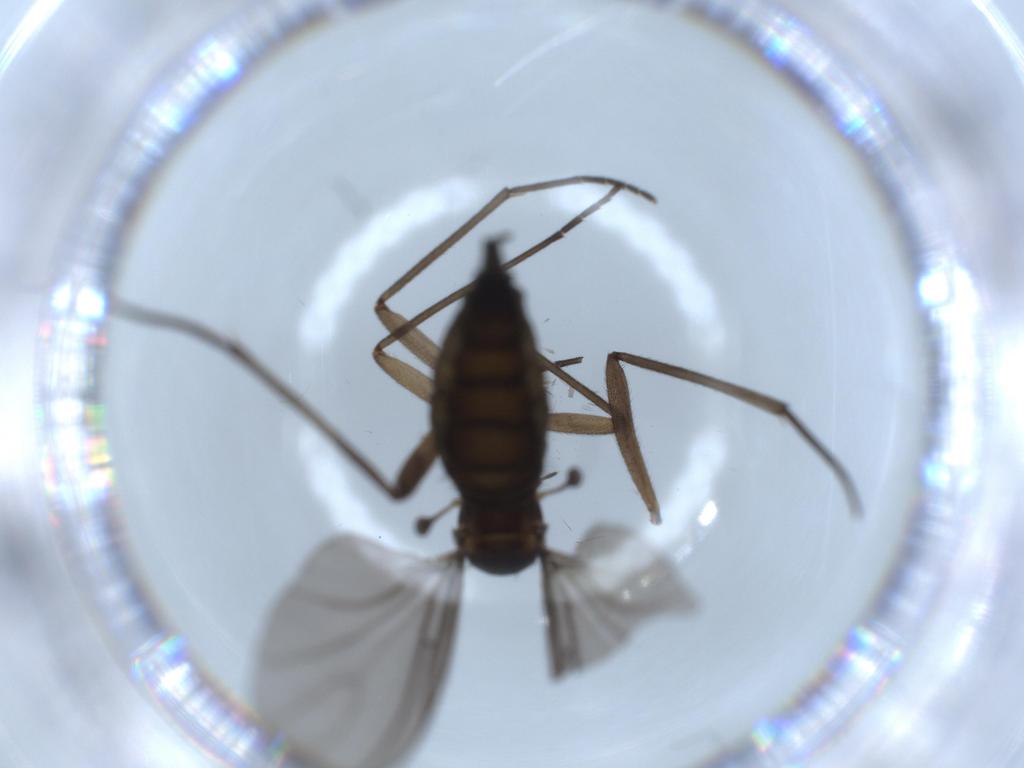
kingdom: Animalia
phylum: Arthropoda
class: Insecta
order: Diptera
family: Sciaridae
